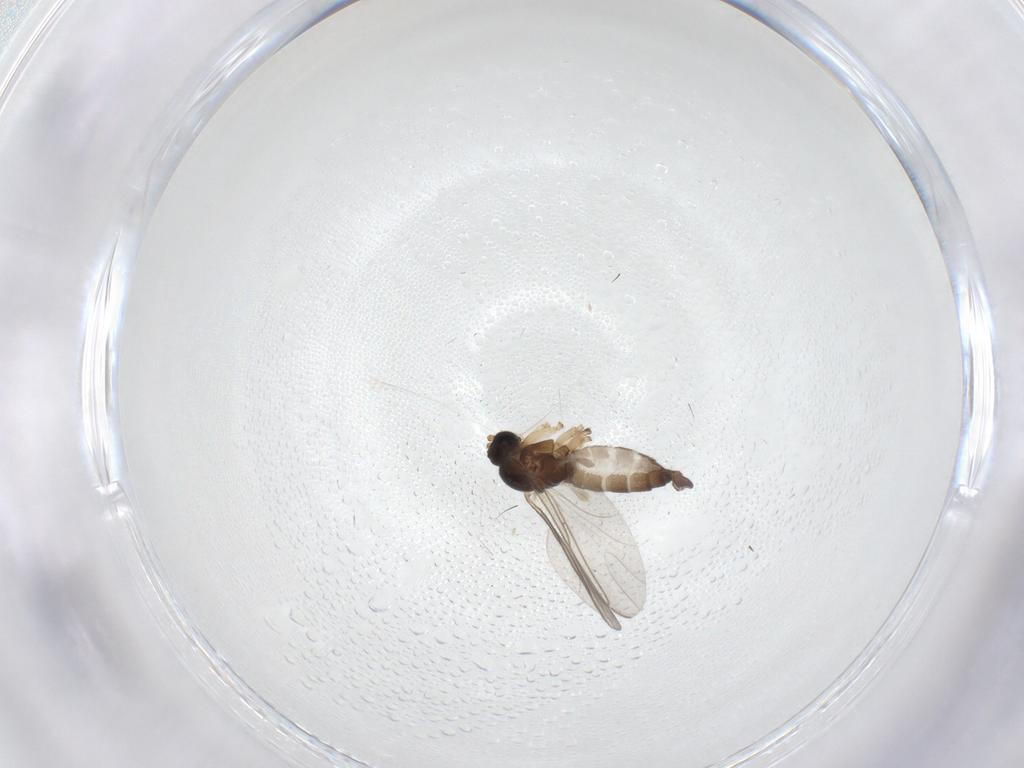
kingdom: Animalia
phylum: Arthropoda
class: Insecta
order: Diptera
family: Sciaridae
